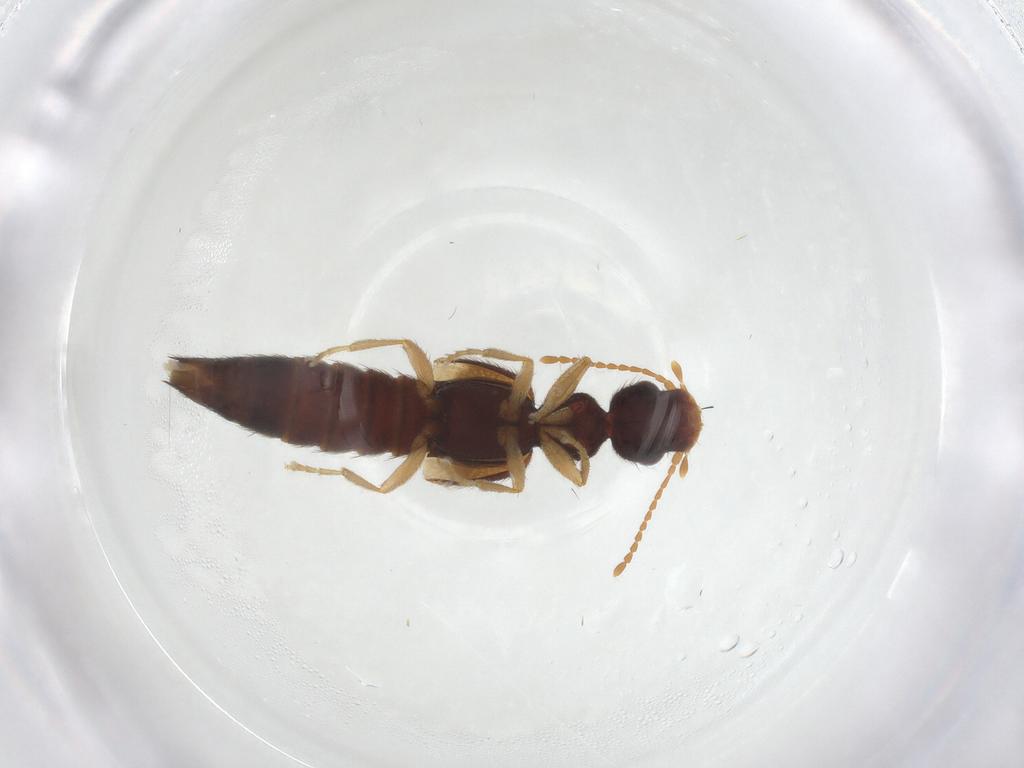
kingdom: Animalia
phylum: Arthropoda
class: Insecta
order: Coleoptera
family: Staphylinidae
